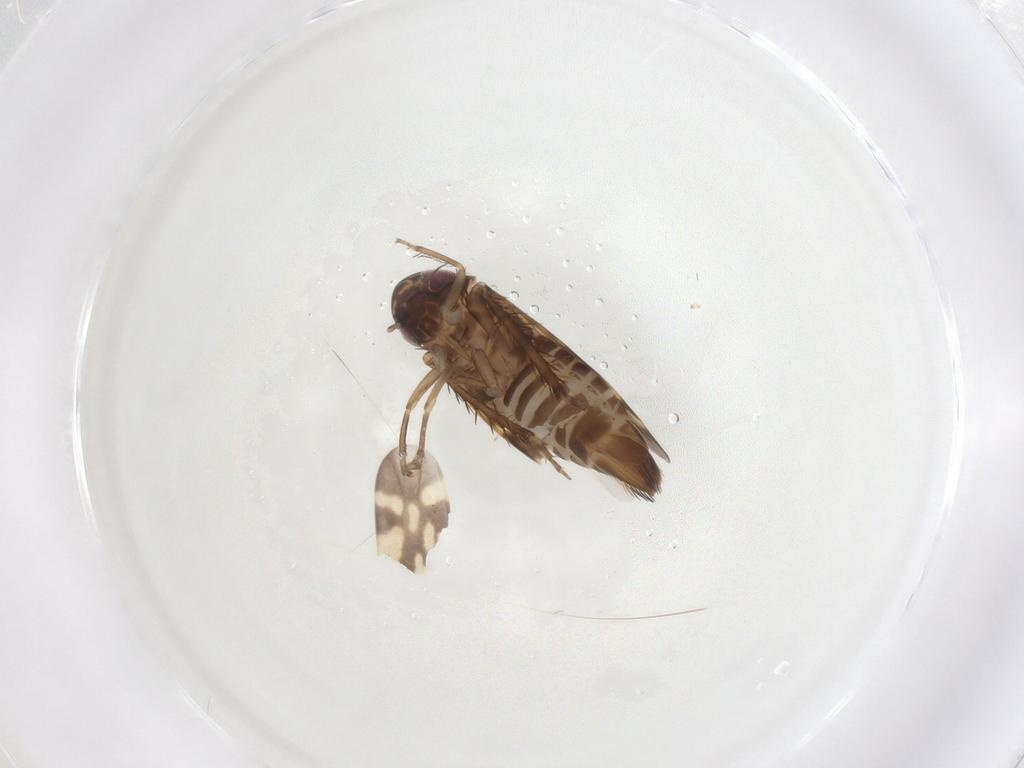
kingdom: Animalia
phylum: Arthropoda
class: Insecta
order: Hemiptera
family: Cicadellidae
